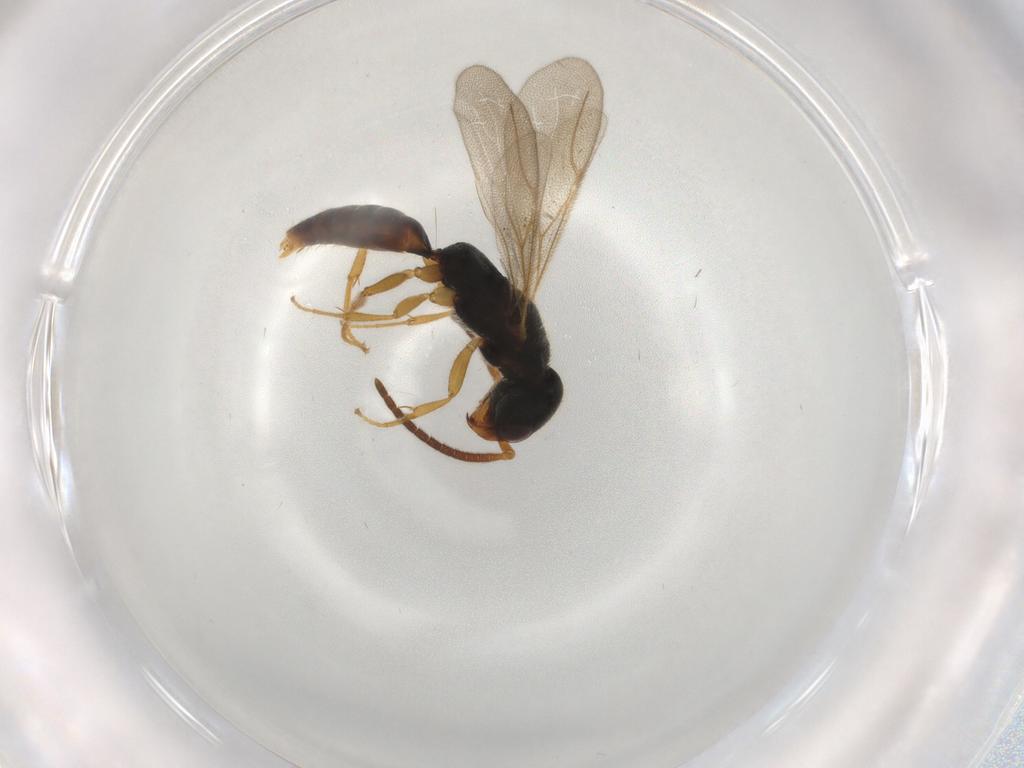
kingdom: Animalia
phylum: Arthropoda
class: Insecta
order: Hymenoptera
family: Bethylidae
